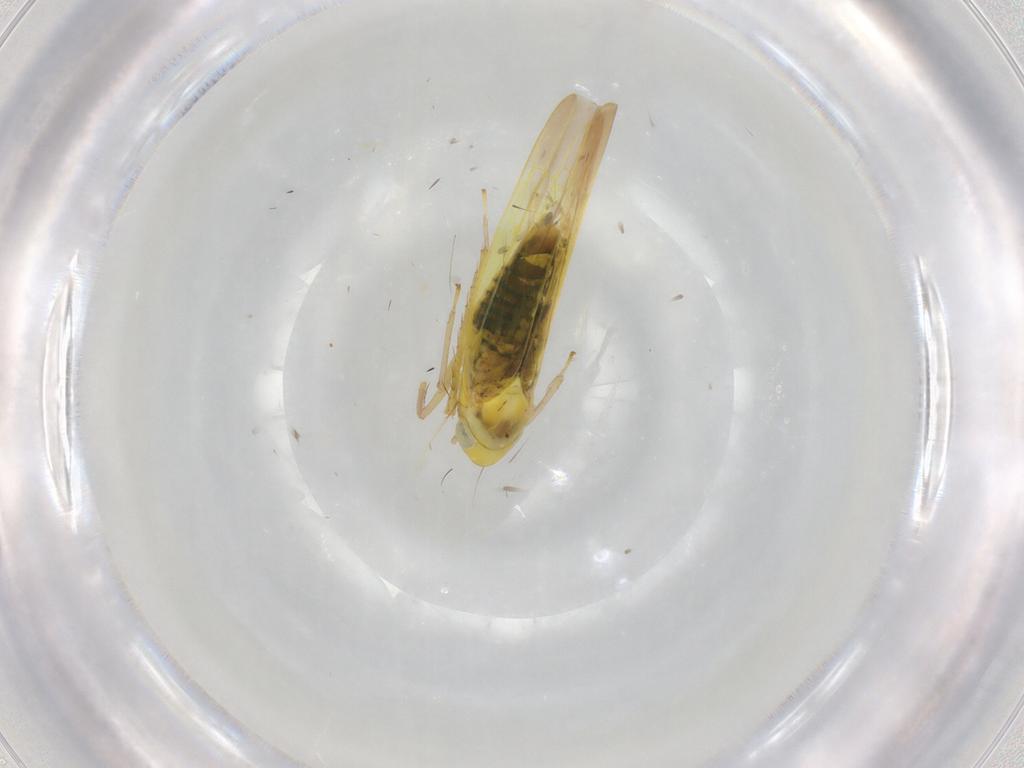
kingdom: Animalia
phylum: Arthropoda
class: Insecta
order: Hemiptera
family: Cicadellidae
